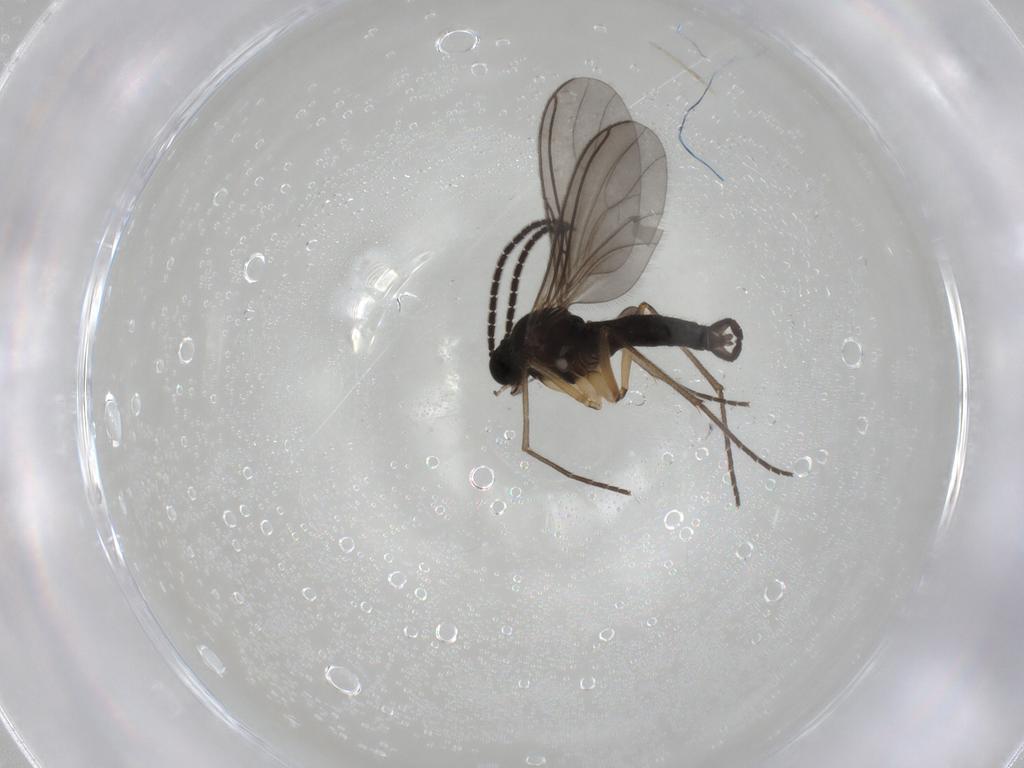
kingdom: Animalia
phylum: Arthropoda
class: Insecta
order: Diptera
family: Sciaridae
